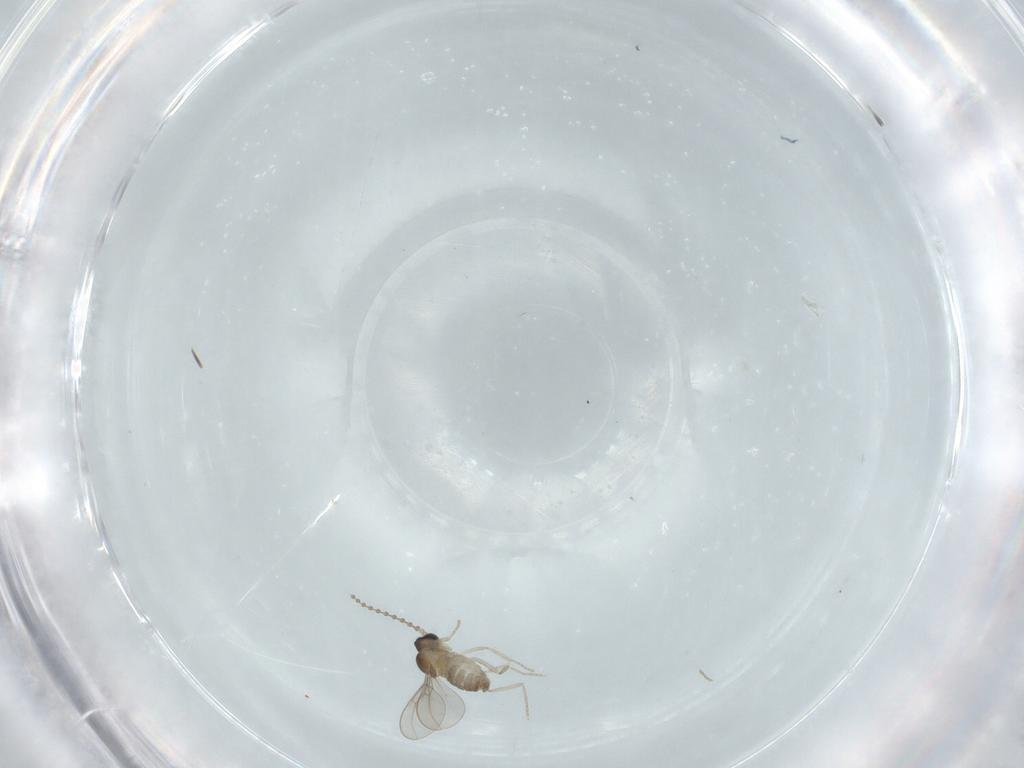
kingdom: Animalia
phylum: Arthropoda
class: Insecta
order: Diptera
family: Cecidomyiidae
